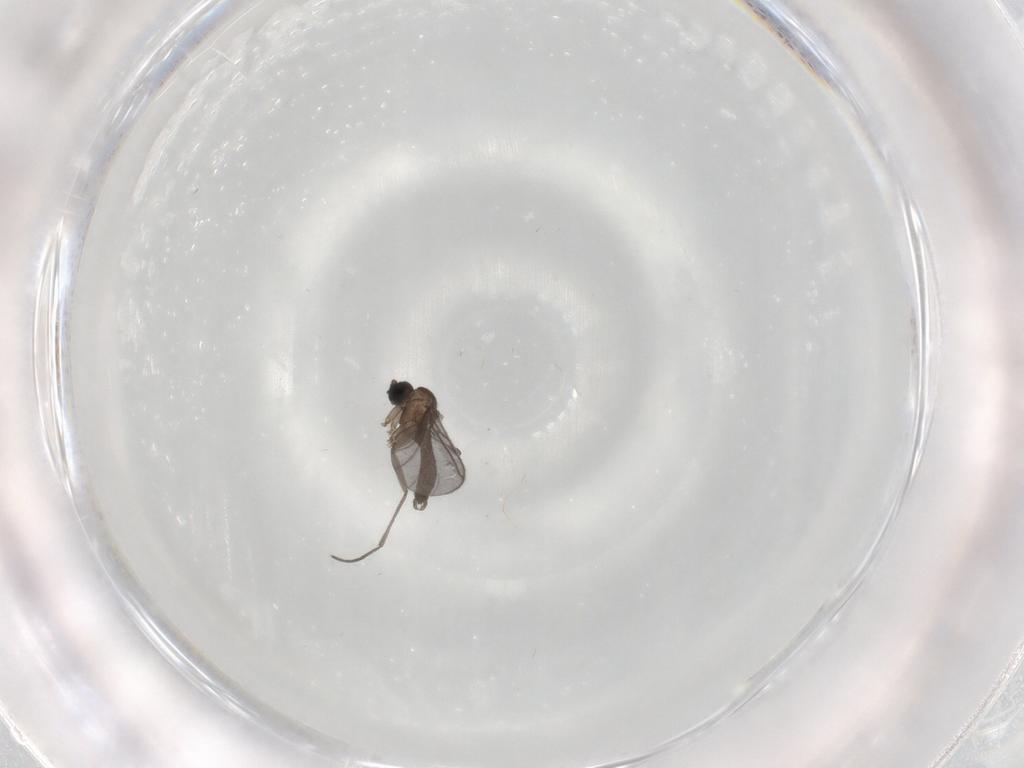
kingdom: Animalia
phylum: Arthropoda
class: Insecta
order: Diptera
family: Sciaridae
